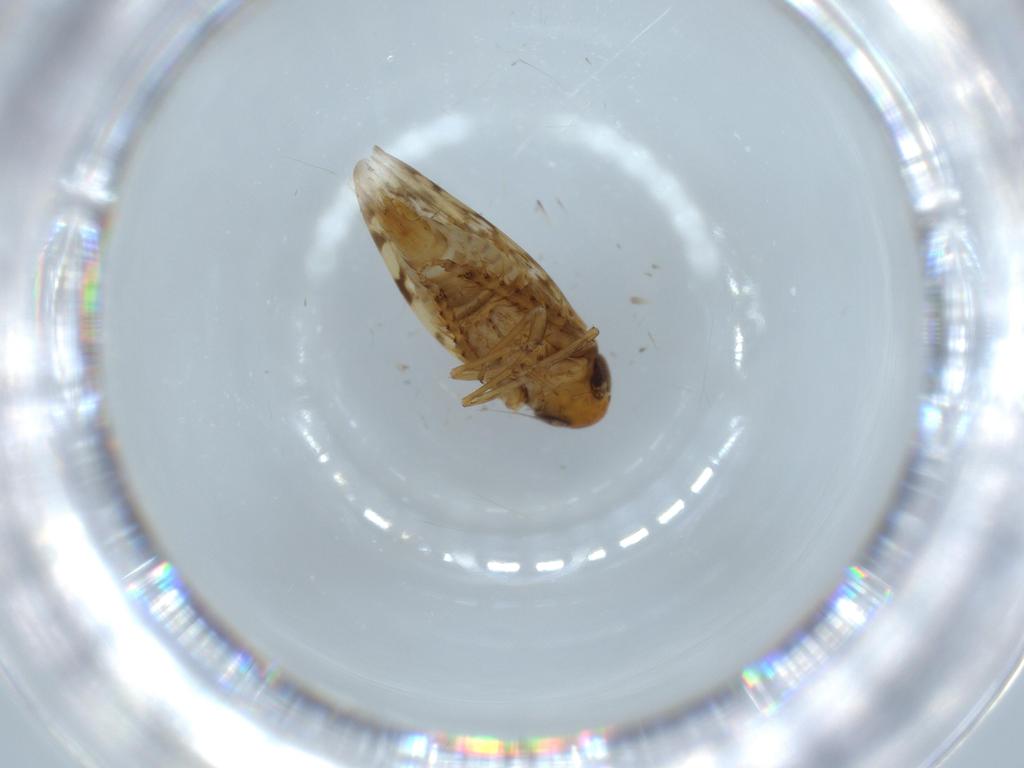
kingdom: Animalia
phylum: Arthropoda
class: Insecta
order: Hemiptera
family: Cicadellidae
